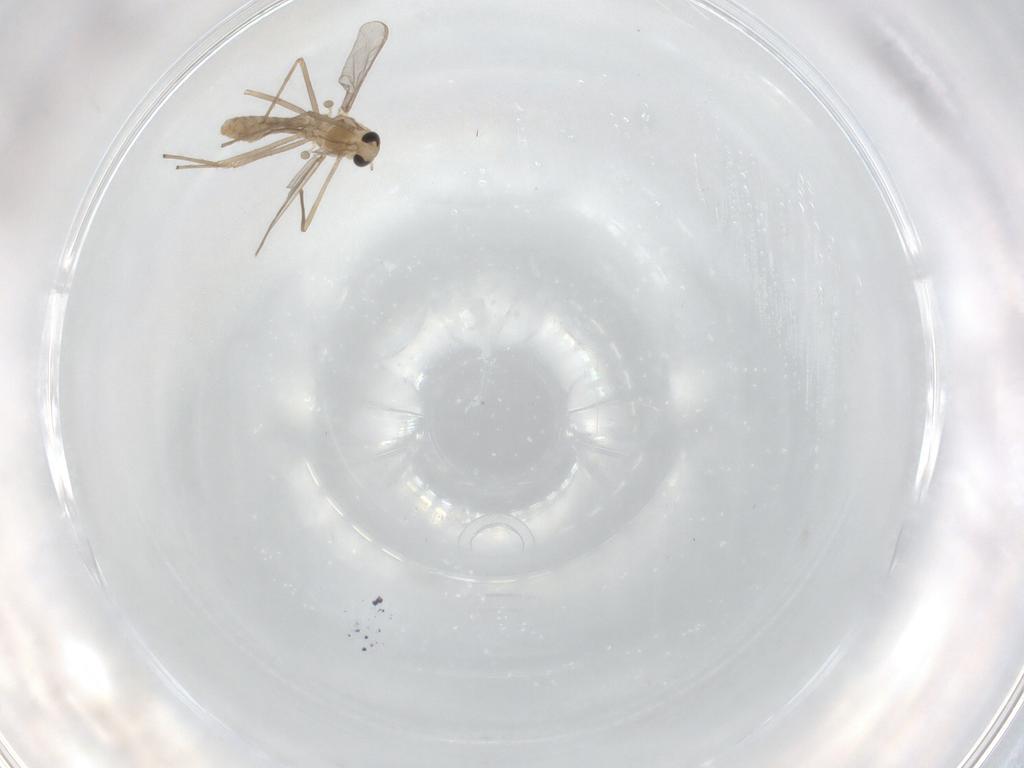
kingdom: Animalia
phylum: Arthropoda
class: Insecta
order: Diptera
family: Chironomidae
